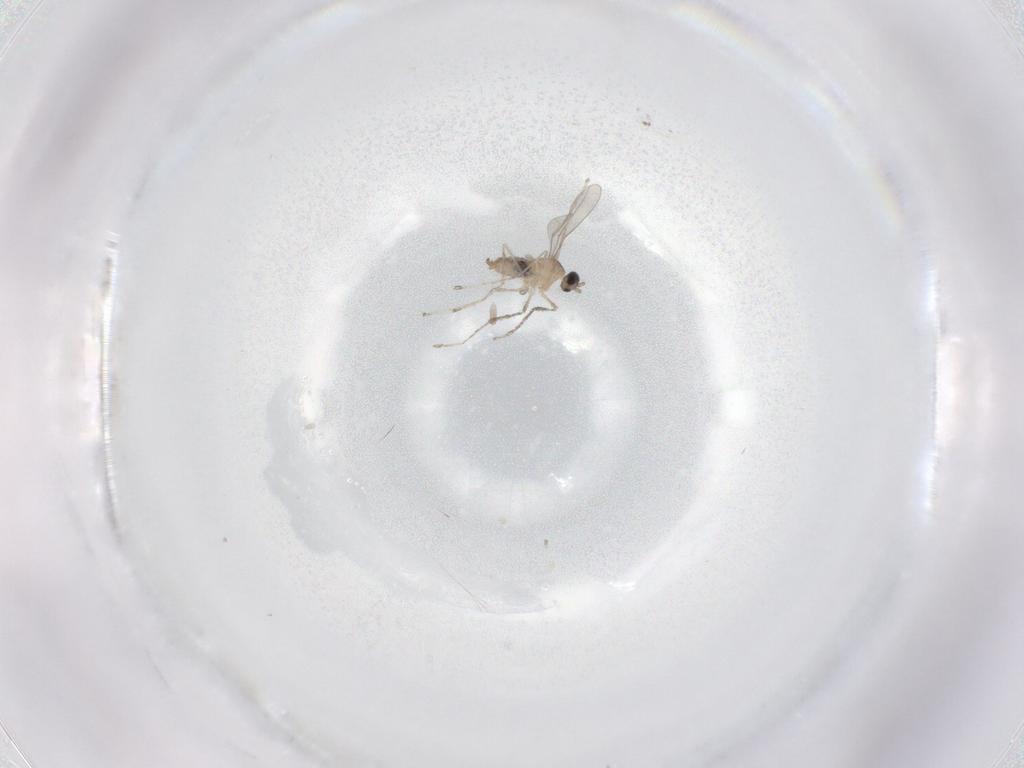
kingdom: Animalia
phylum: Arthropoda
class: Insecta
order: Diptera
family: Cecidomyiidae
